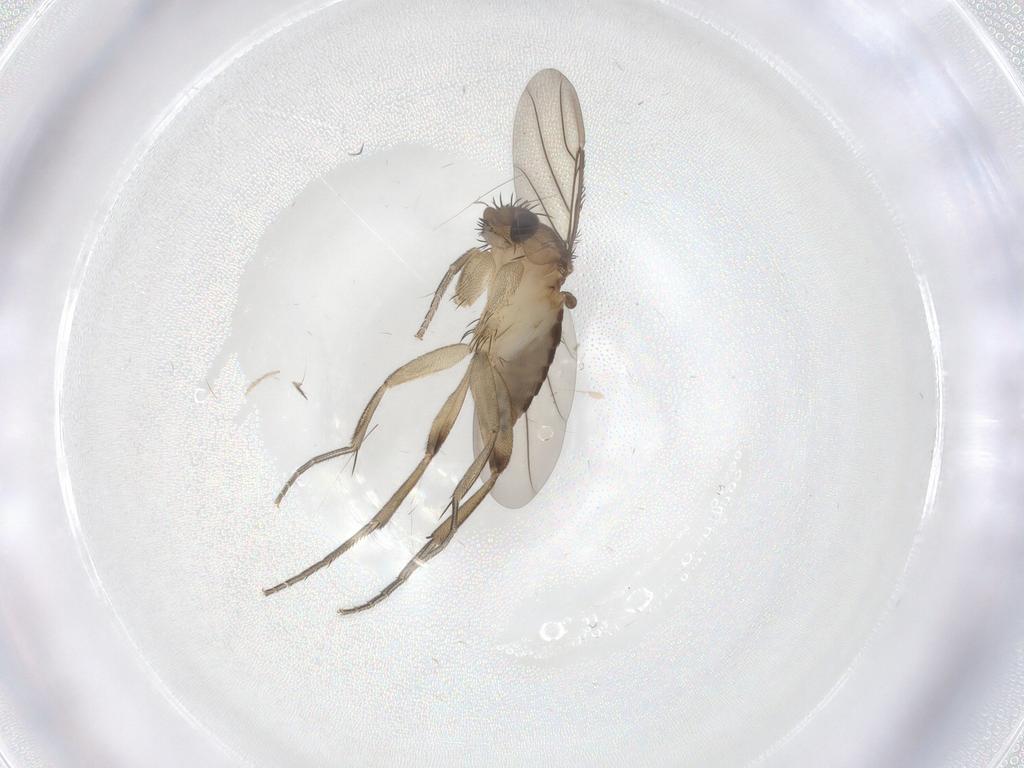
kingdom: Animalia
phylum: Arthropoda
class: Insecta
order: Diptera
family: Phoridae
